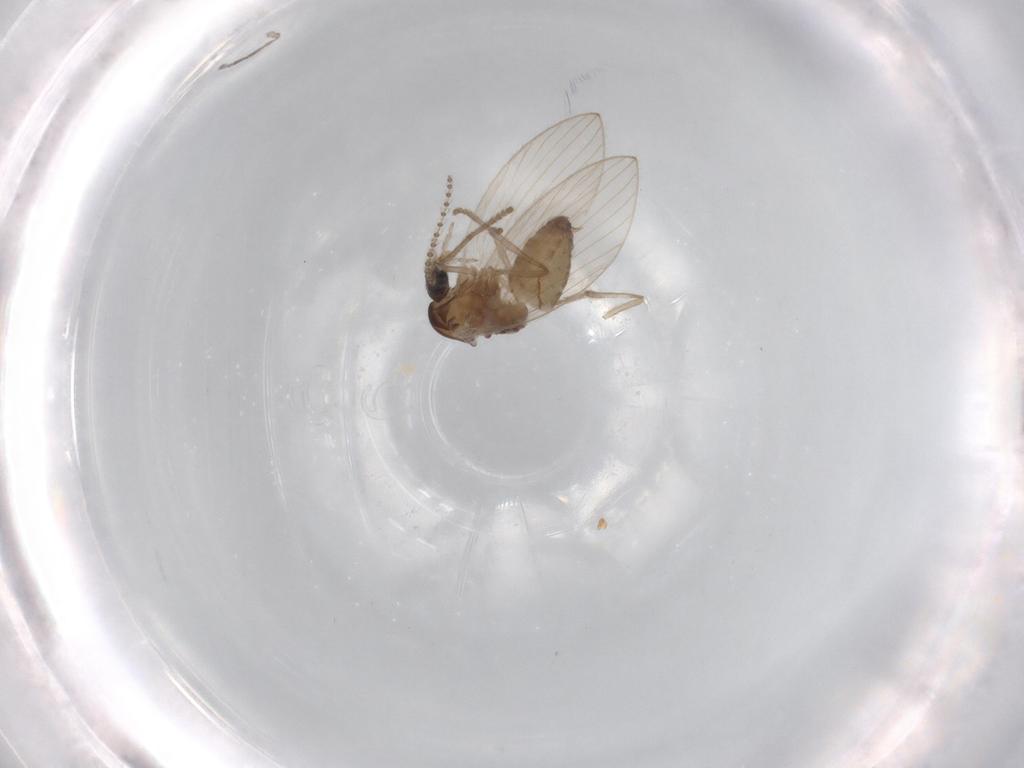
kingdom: Animalia
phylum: Arthropoda
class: Insecta
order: Diptera
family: Psychodidae
